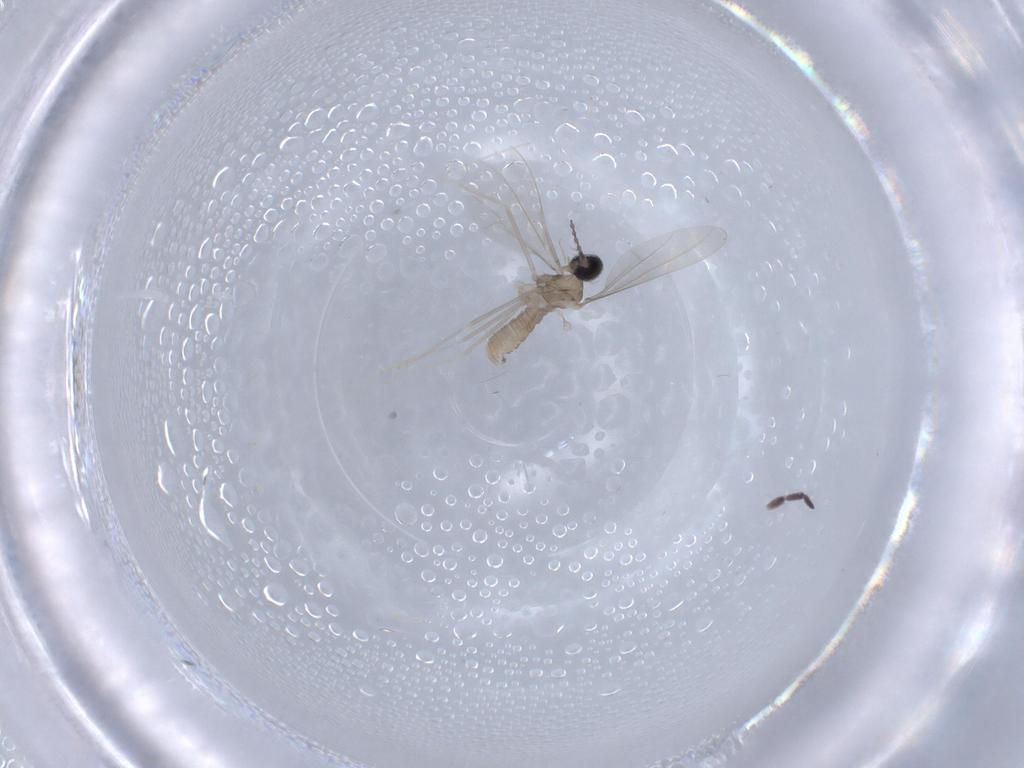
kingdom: Animalia
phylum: Arthropoda
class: Insecta
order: Diptera
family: Cecidomyiidae
